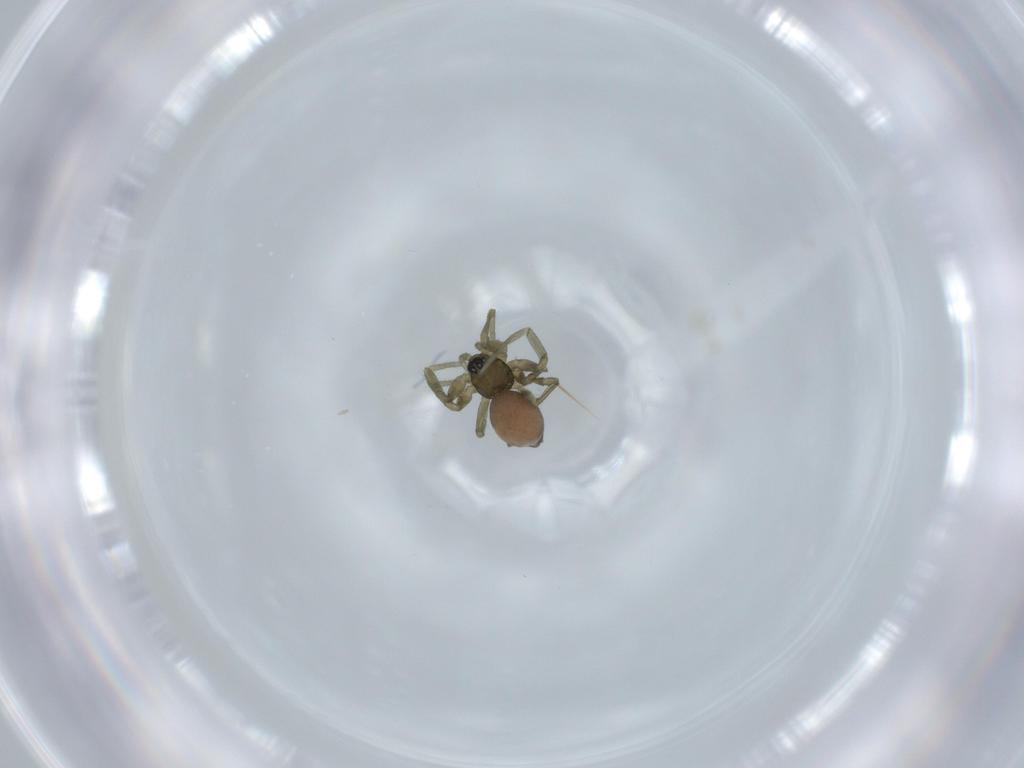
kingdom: Animalia
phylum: Arthropoda
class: Arachnida
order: Araneae
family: Linyphiidae
